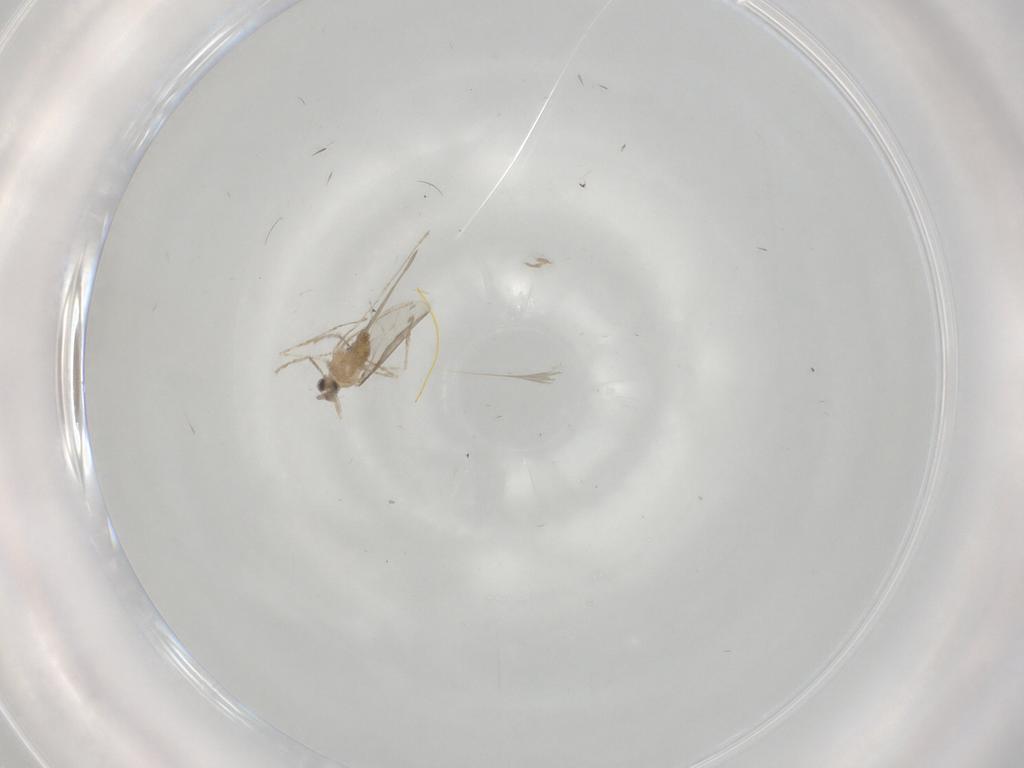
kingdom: Animalia
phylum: Arthropoda
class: Insecta
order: Diptera
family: Cecidomyiidae
